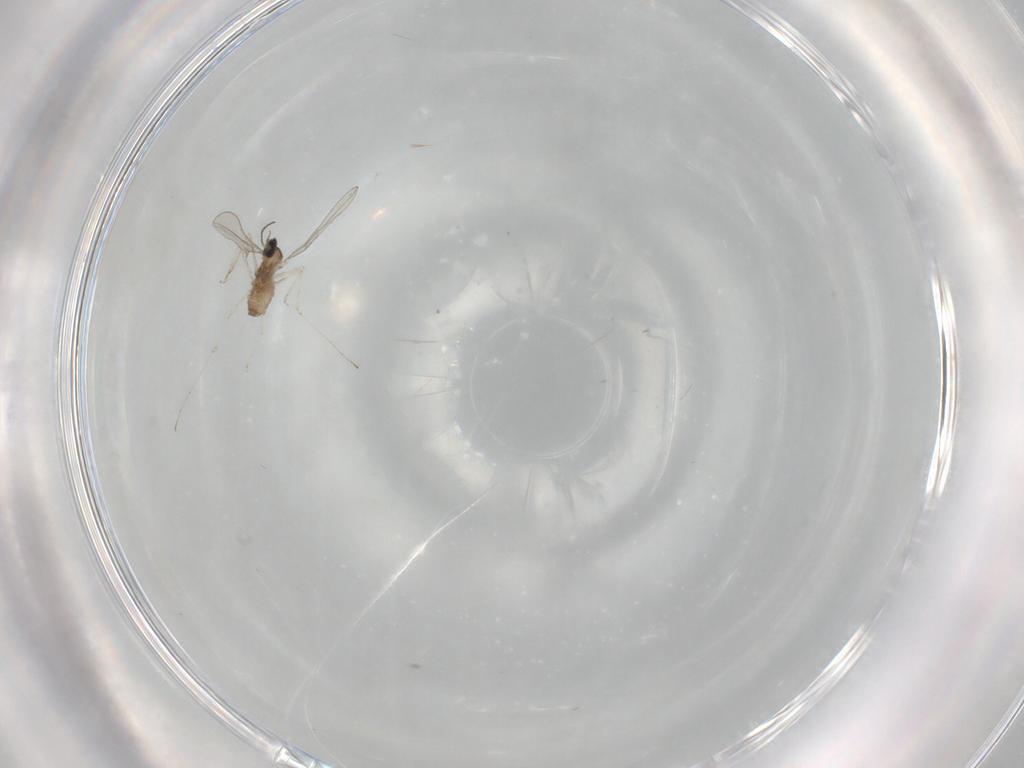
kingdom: Animalia
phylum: Arthropoda
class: Insecta
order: Diptera
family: Cecidomyiidae
